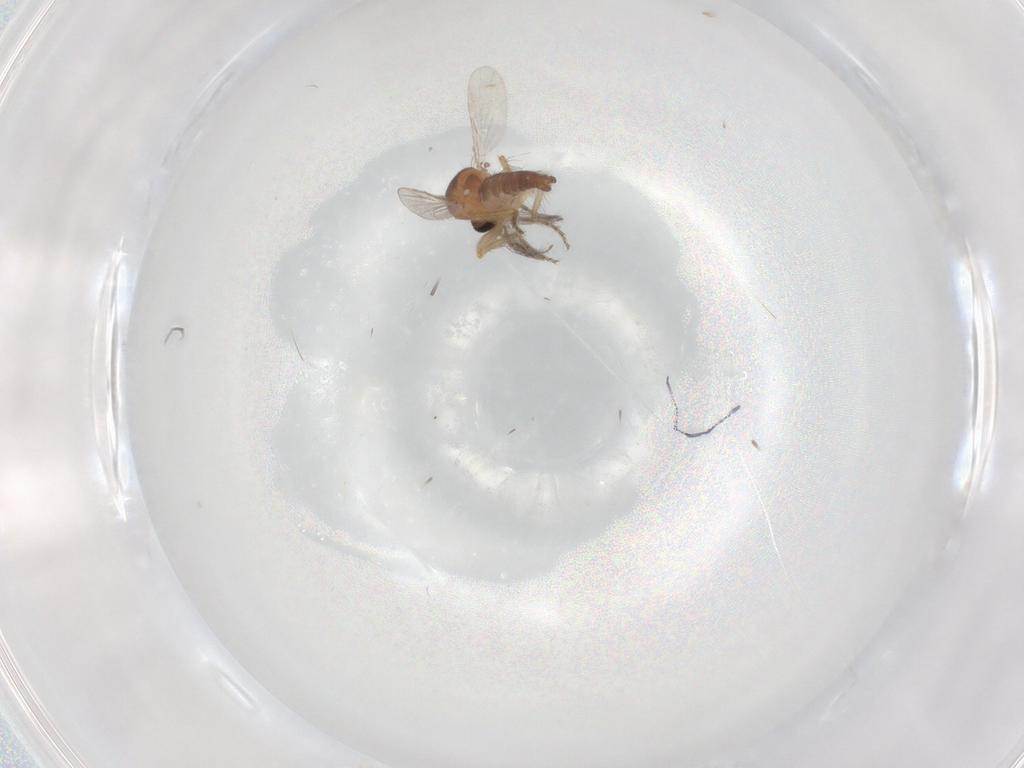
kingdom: Animalia
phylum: Arthropoda
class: Insecta
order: Diptera
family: Ceratopogonidae
